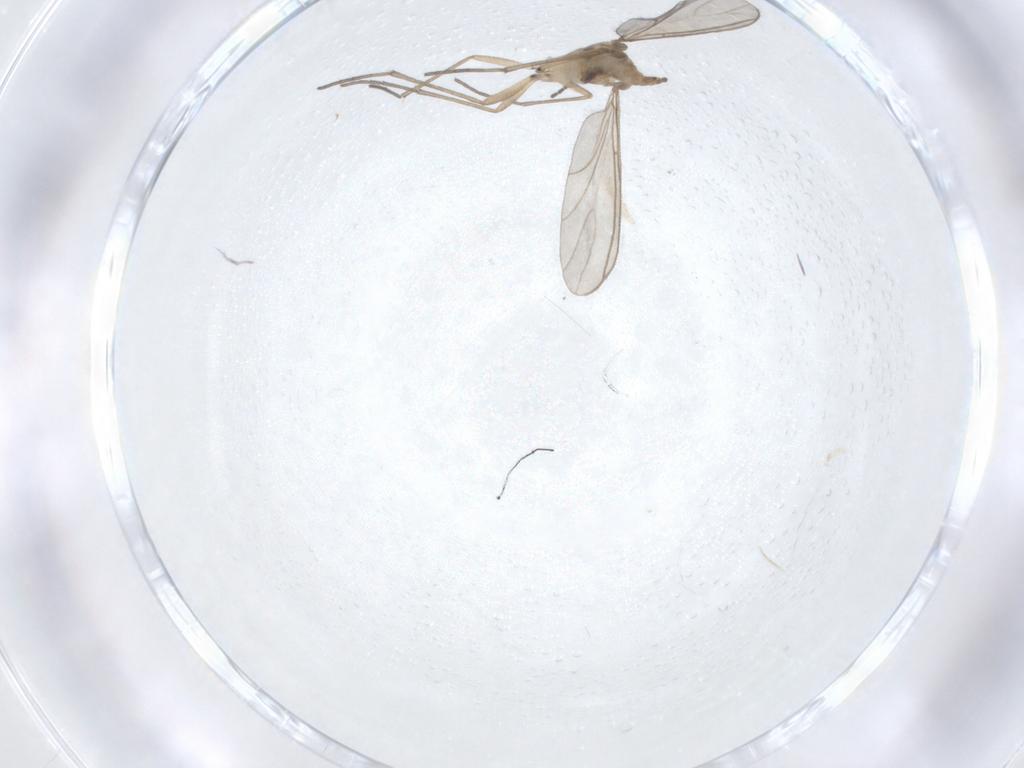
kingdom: Animalia
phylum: Arthropoda
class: Insecta
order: Diptera
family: Sciaridae
